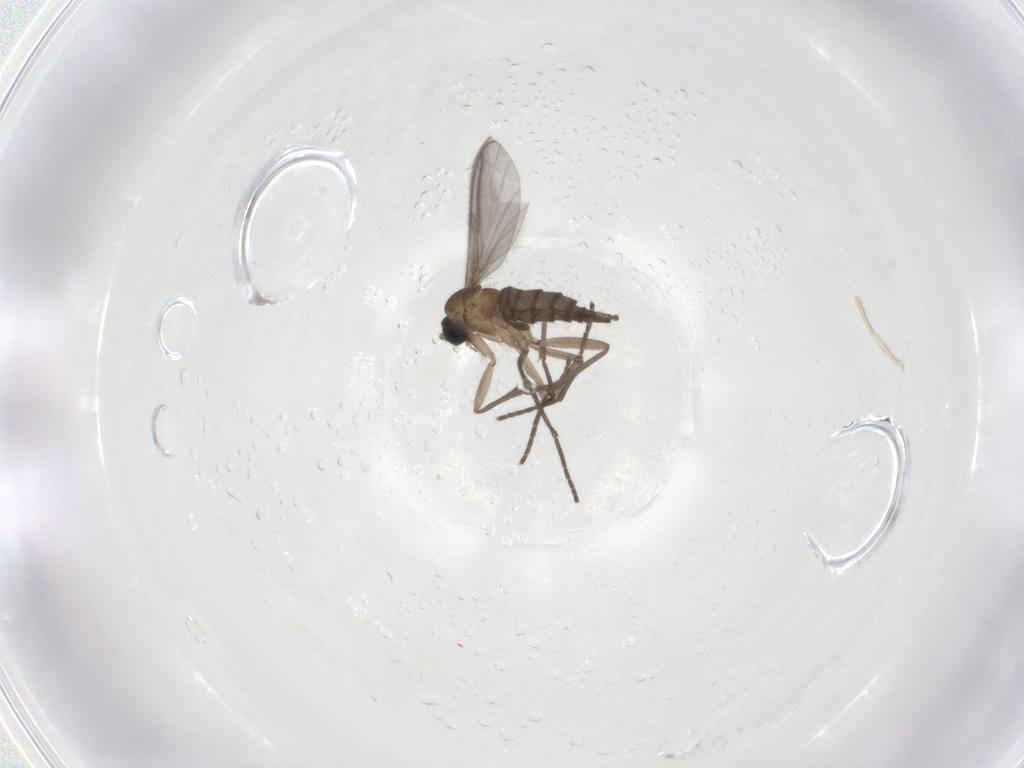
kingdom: Animalia
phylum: Arthropoda
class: Insecta
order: Diptera
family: Sciaridae
